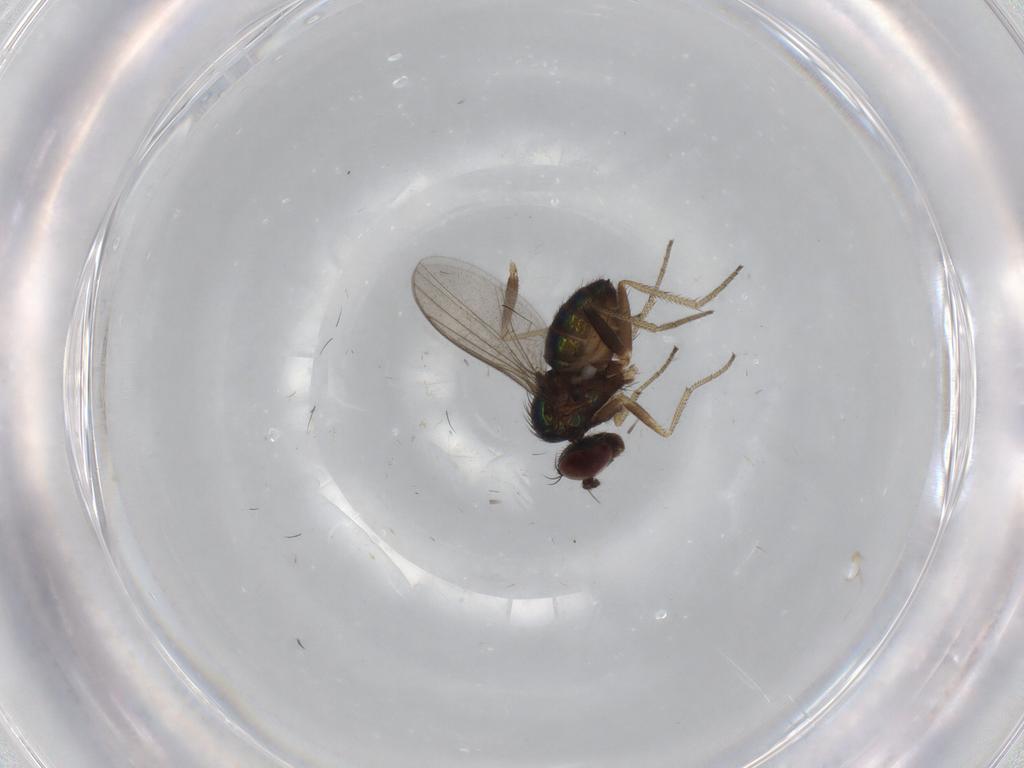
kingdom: Animalia
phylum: Arthropoda
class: Insecta
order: Diptera
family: Dolichopodidae
